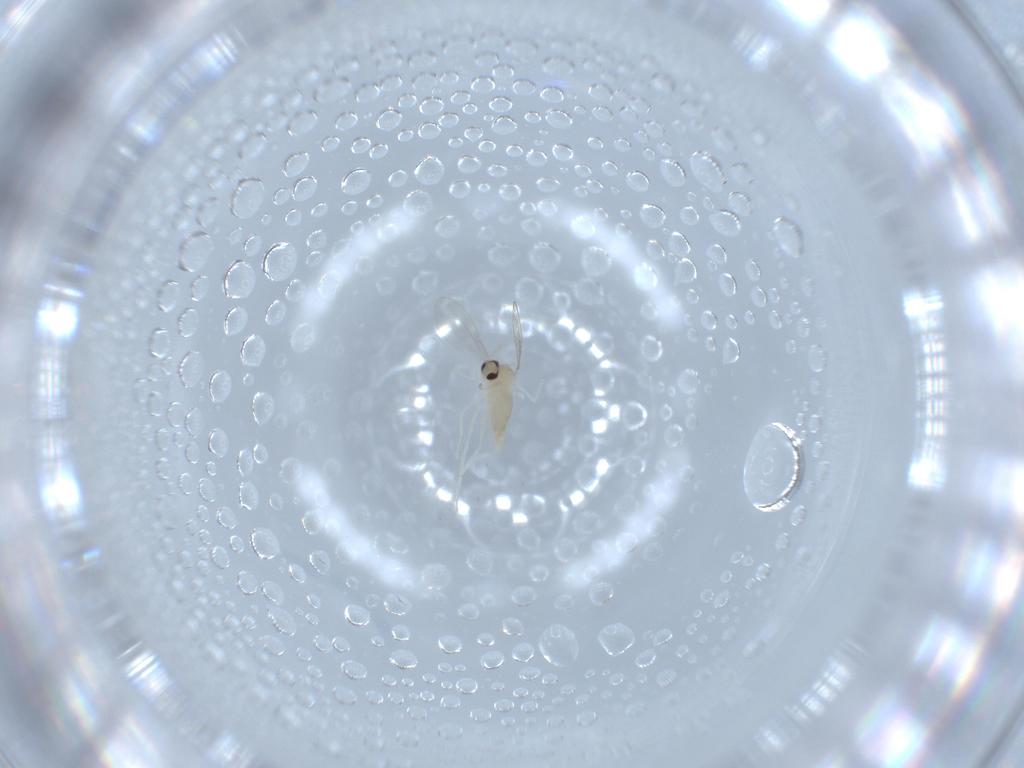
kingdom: Animalia
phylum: Arthropoda
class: Insecta
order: Diptera
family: Cecidomyiidae
